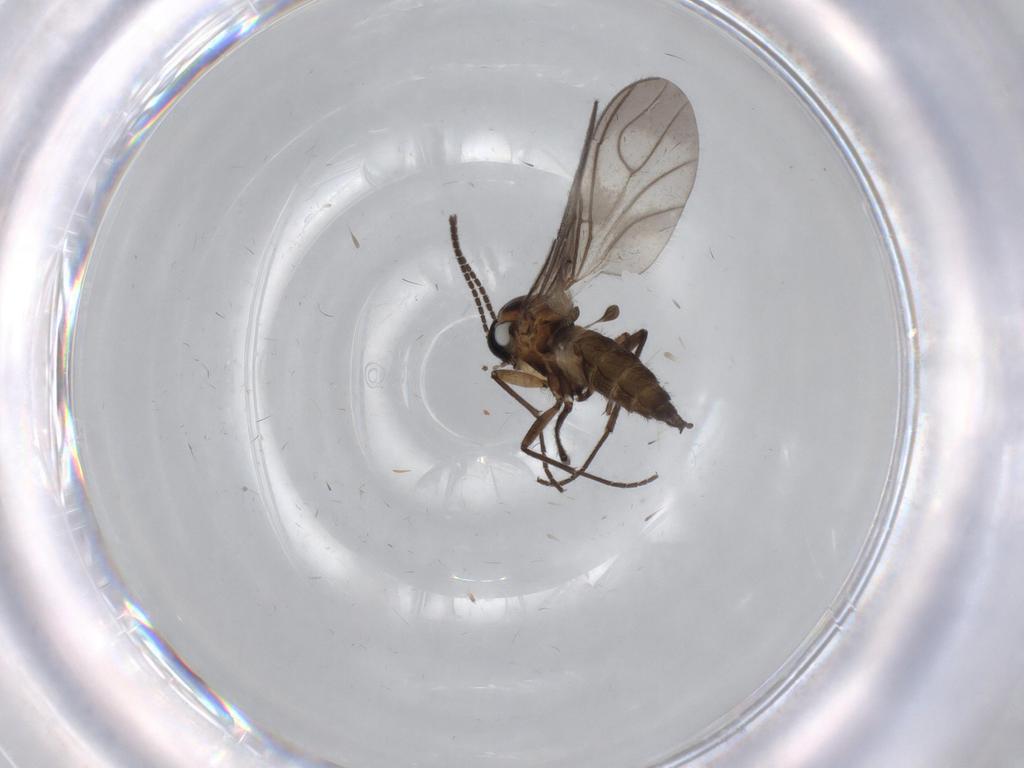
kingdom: Animalia
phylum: Arthropoda
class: Insecta
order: Diptera
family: Sciaridae
